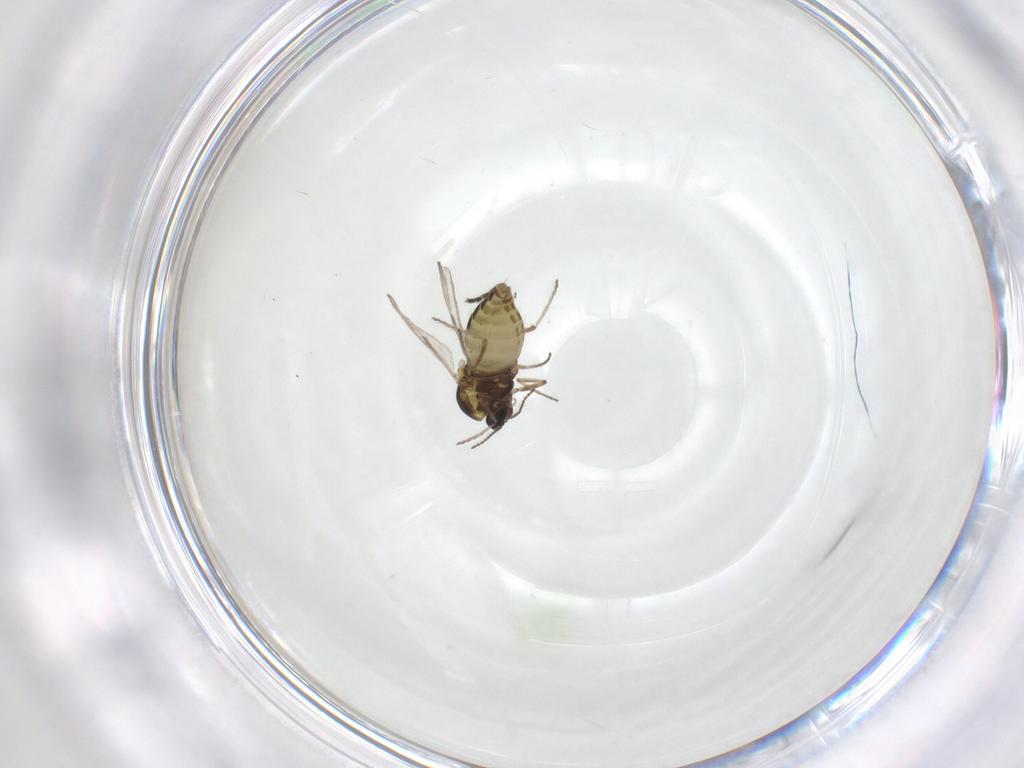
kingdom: Animalia
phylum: Arthropoda
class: Insecta
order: Diptera
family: Ceratopogonidae
